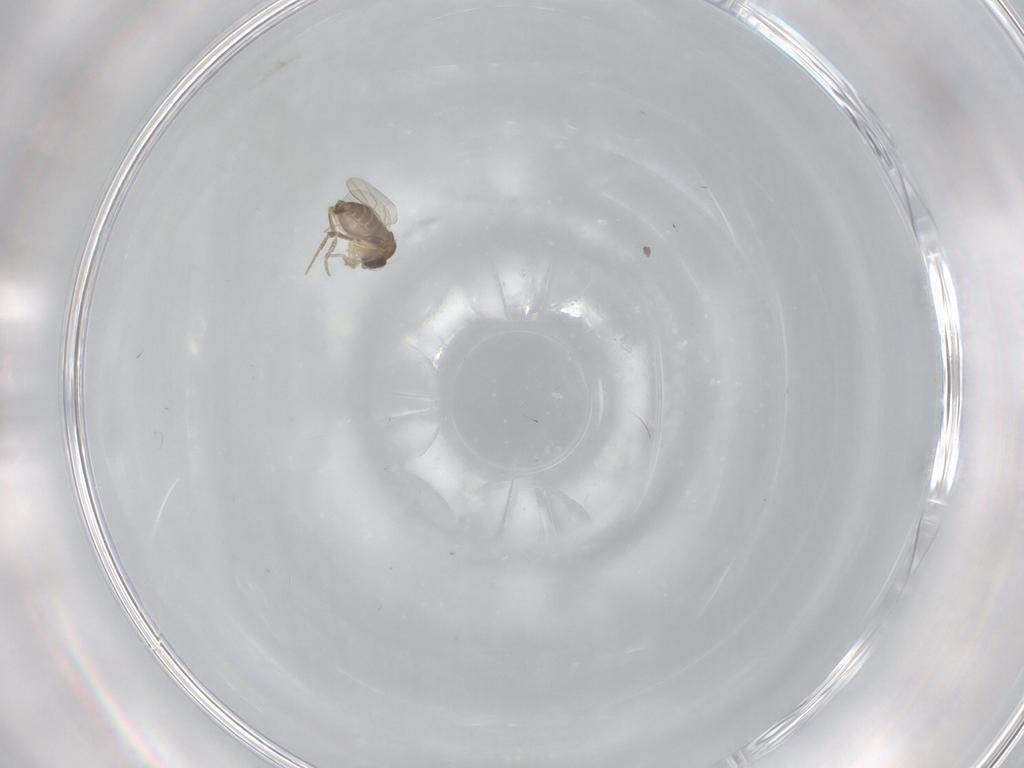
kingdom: Animalia
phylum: Arthropoda
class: Insecta
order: Diptera
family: Phoridae
